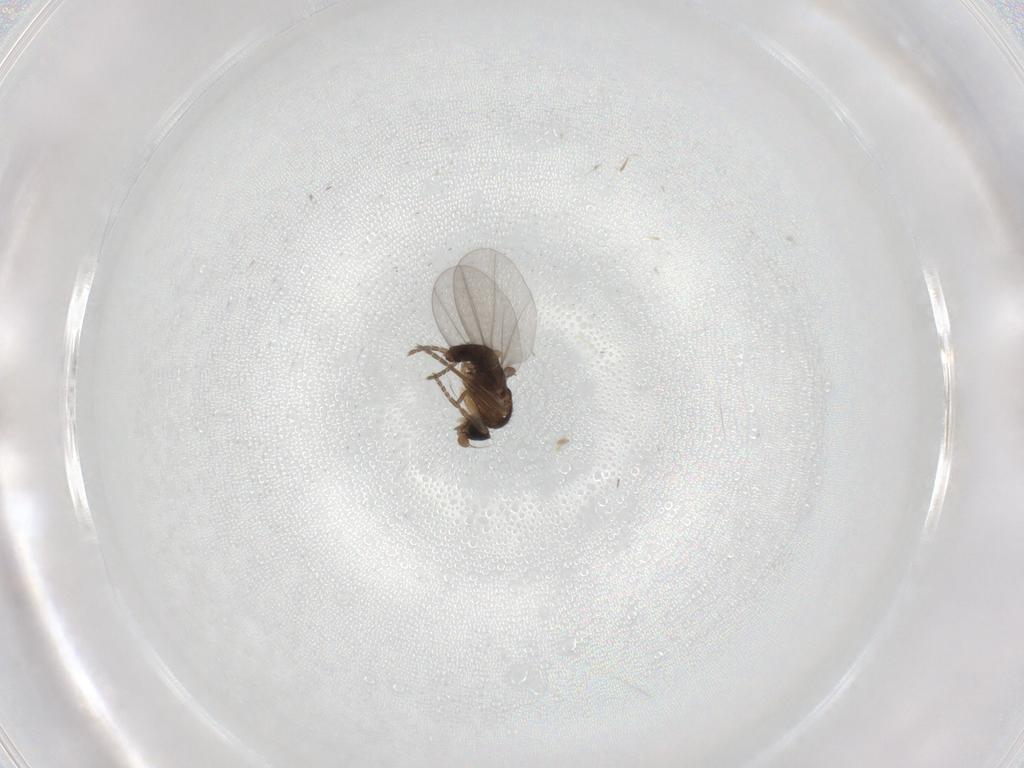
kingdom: Animalia
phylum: Arthropoda
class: Insecta
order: Diptera
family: Phoridae
